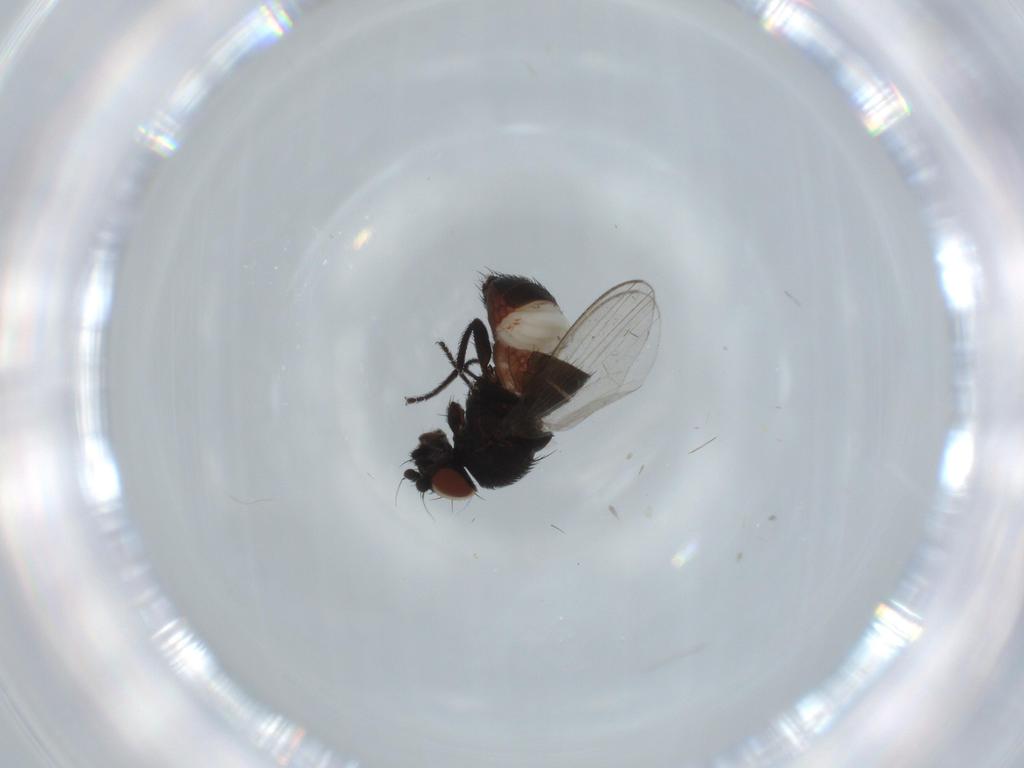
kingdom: Animalia
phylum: Arthropoda
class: Insecta
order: Diptera
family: Milichiidae
